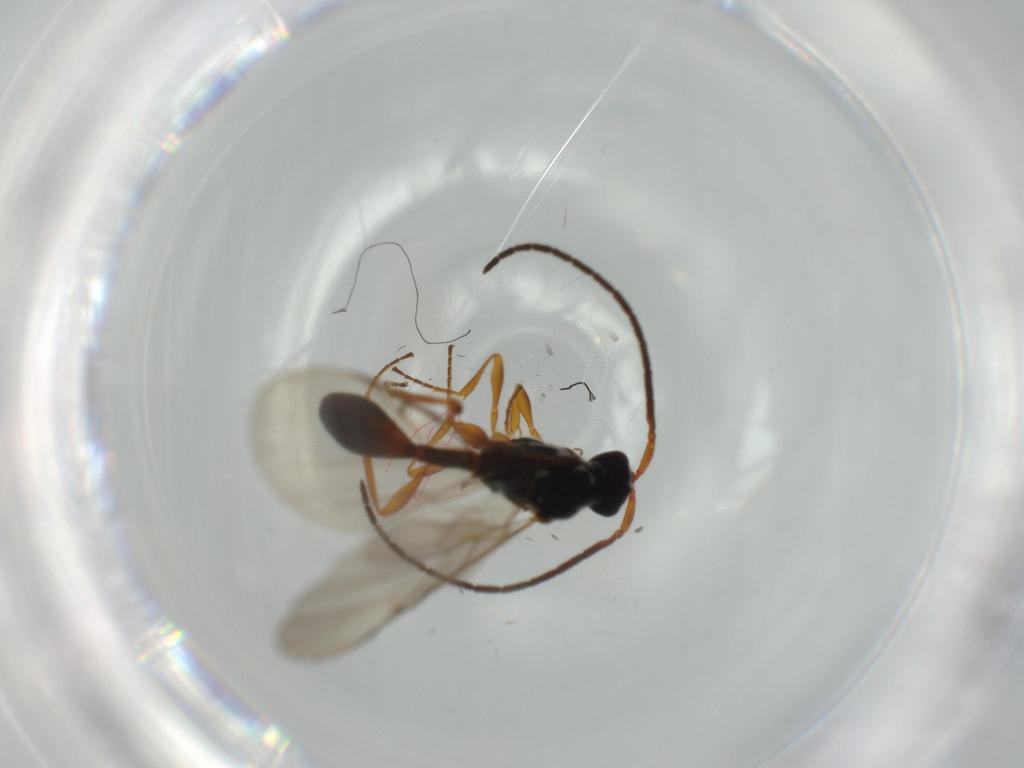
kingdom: Animalia
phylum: Arthropoda
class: Insecta
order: Hymenoptera
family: Diapriidae
